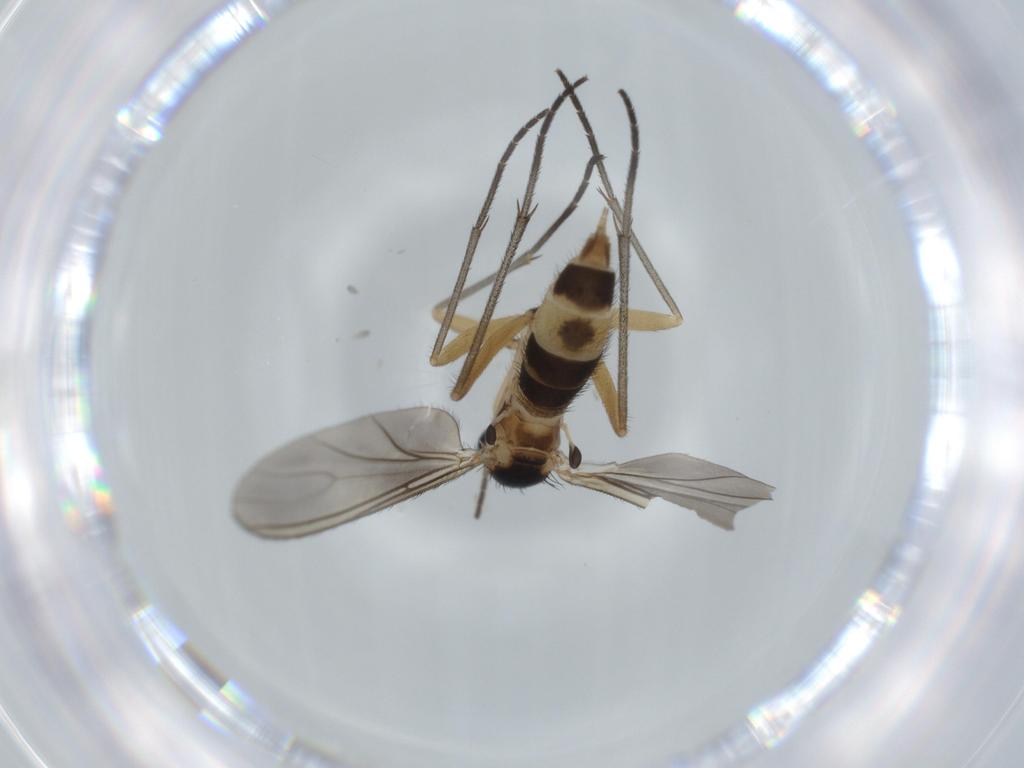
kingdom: Animalia
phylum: Arthropoda
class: Insecta
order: Diptera
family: Sciaridae
